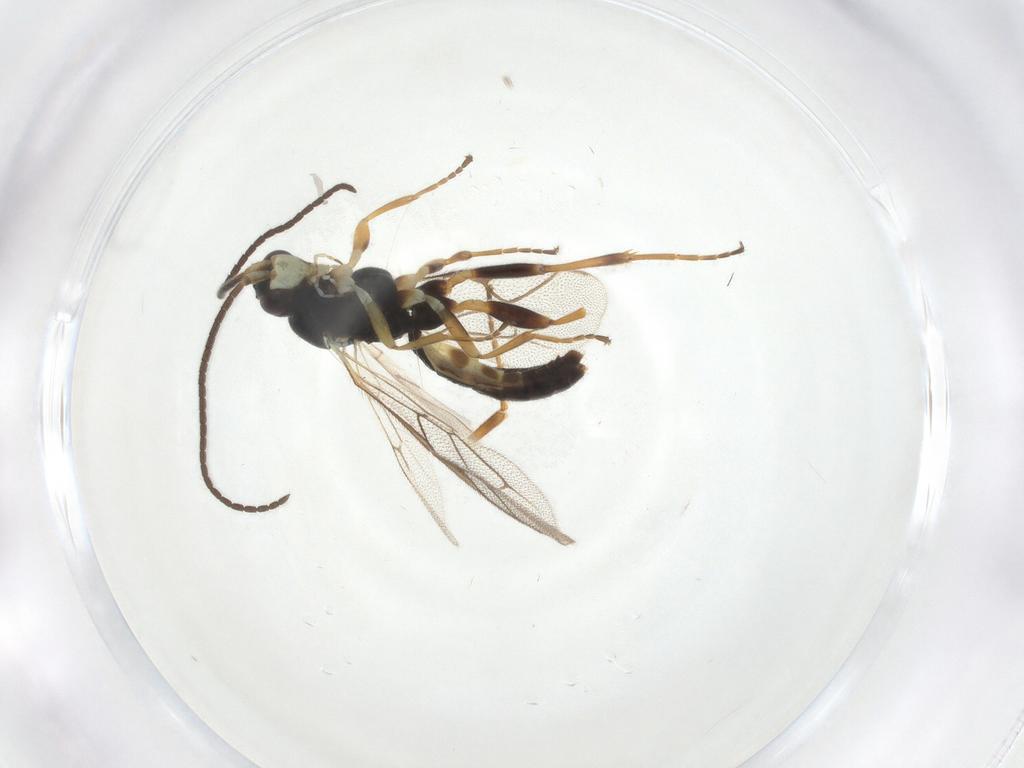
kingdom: Animalia
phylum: Arthropoda
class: Insecta
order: Hymenoptera
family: Ichneumonidae
